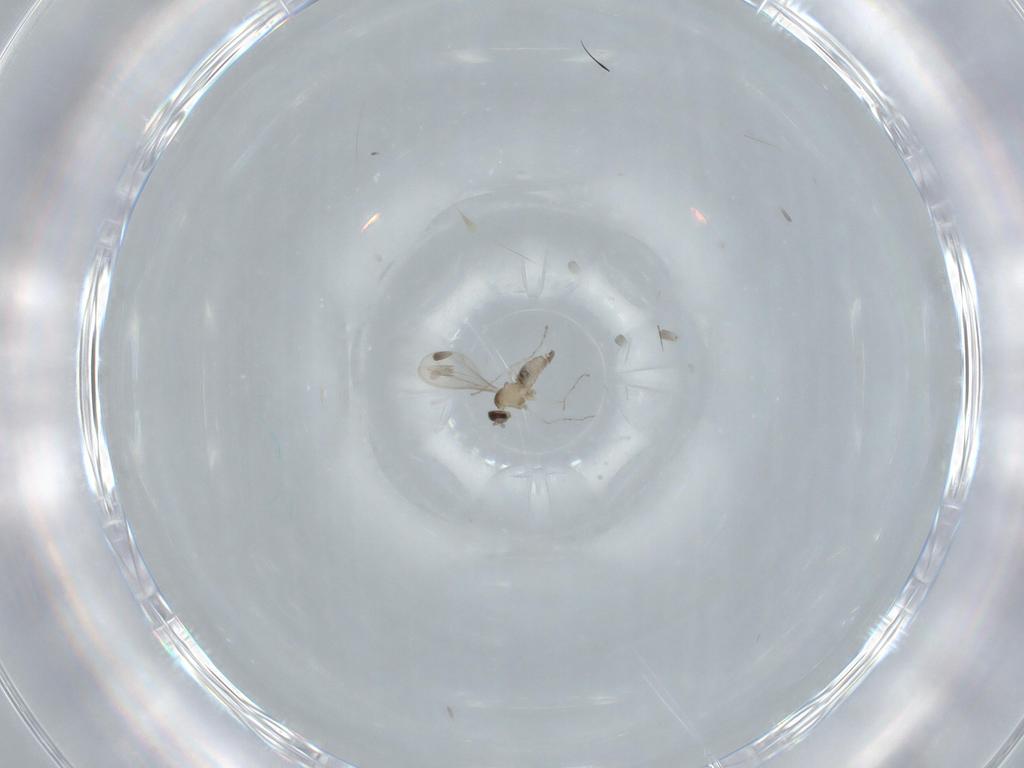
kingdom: Animalia
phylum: Arthropoda
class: Insecta
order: Diptera
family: Cecidomyiidae
